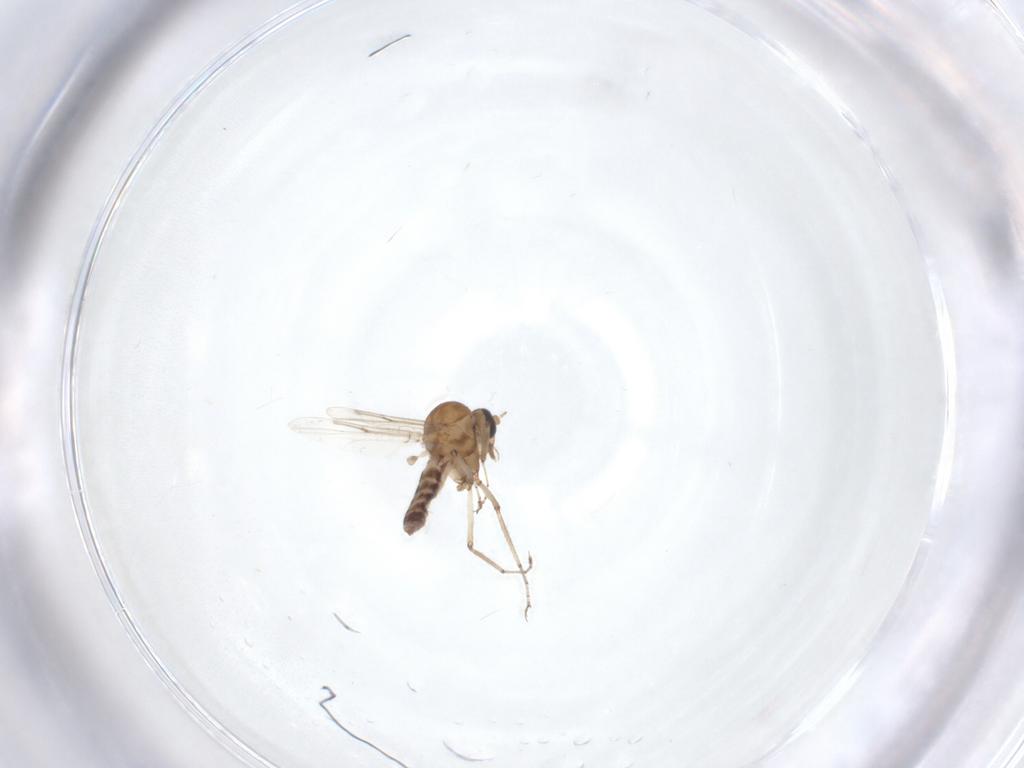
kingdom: Animalia
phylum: Arthropoda
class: Insecta
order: Diptera
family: Ceratopogonidae
